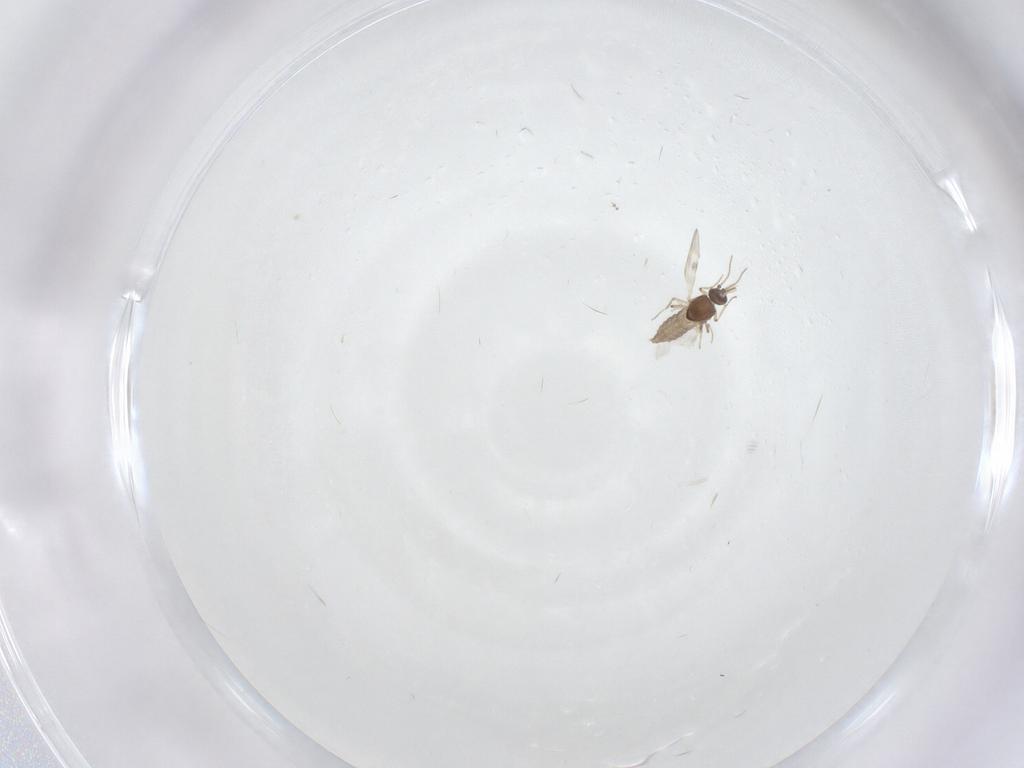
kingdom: Animalia
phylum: Arthropoda
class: Insecta
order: Diptera
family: Cecidomyiidae
